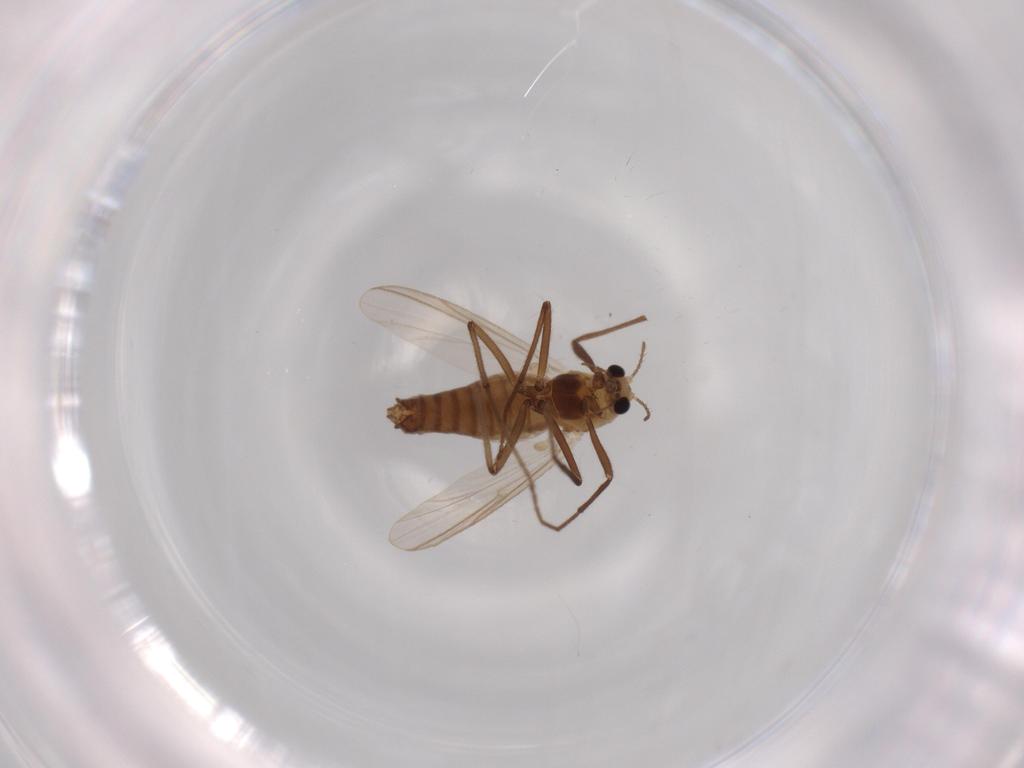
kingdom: Animalia
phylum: Arthropoda
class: Insecta
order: Diptera
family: Chironomidae
